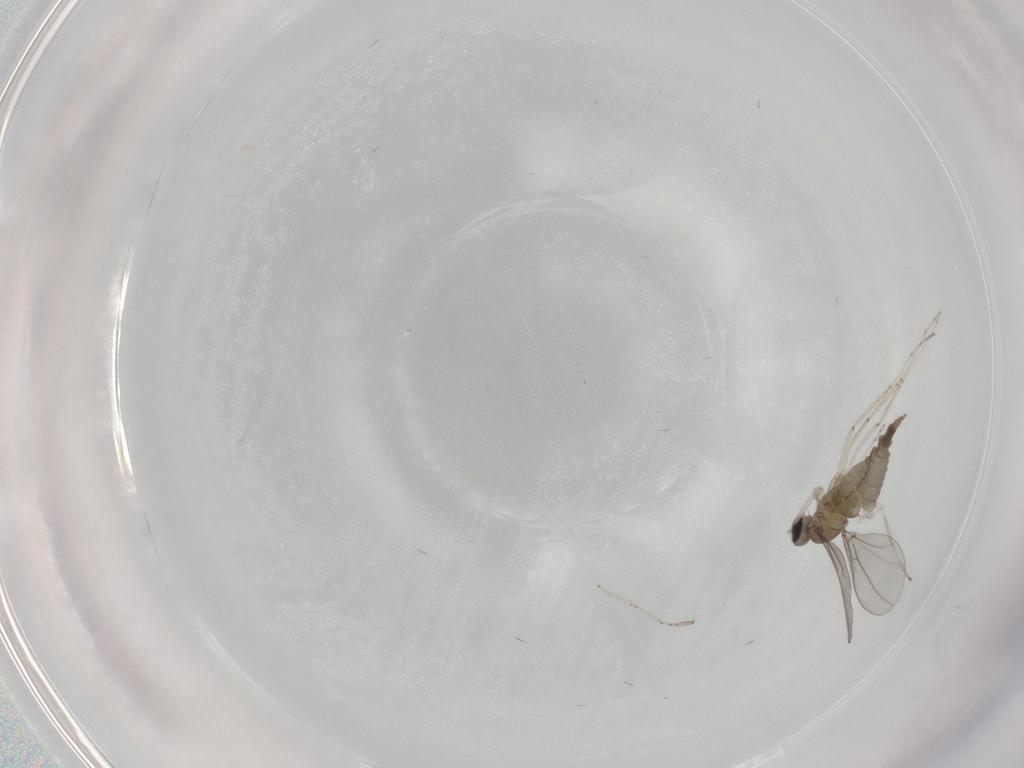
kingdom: Animalia
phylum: Arthropoda
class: Insecta
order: Diptera
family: Cecidomyiidae
